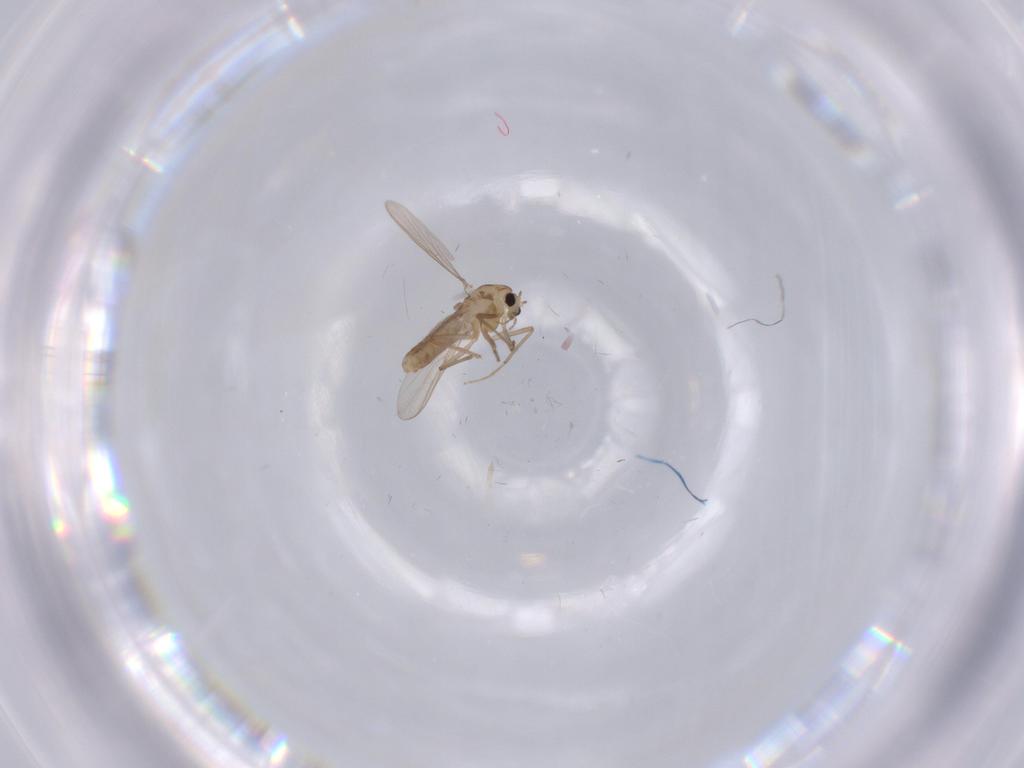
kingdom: Animalia
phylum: Arthropoda
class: Insecta
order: Diptera
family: Chironomidae
